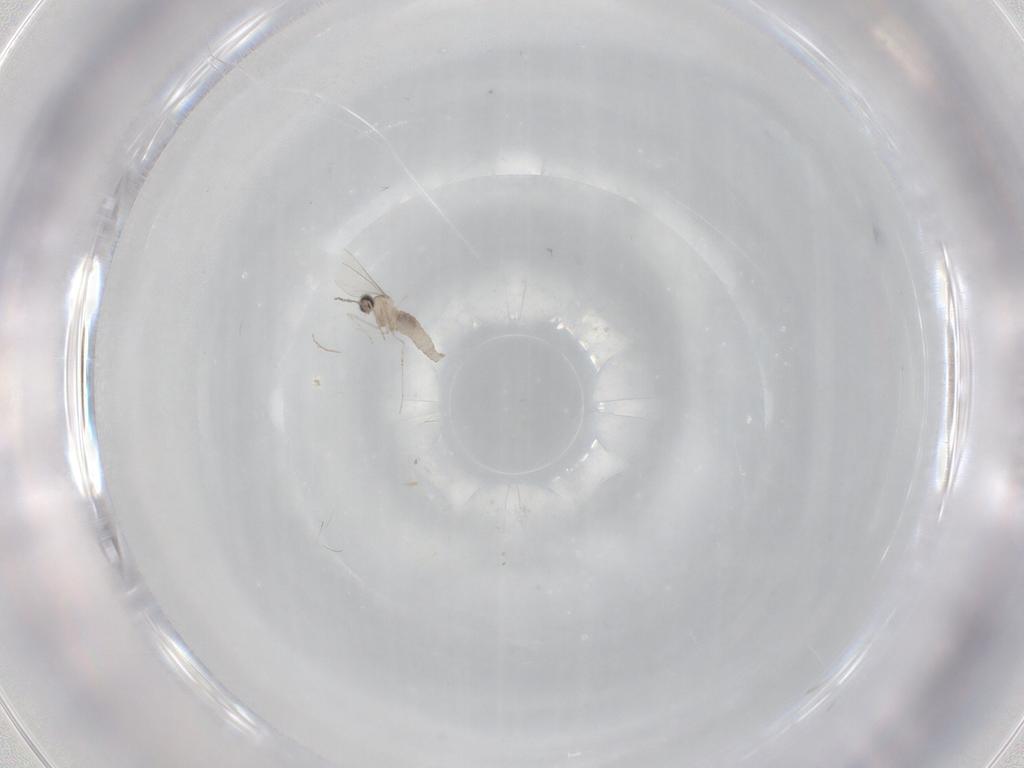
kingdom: Animalia
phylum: Arthropoda
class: Insecta
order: Diptera
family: Cecidomyiidae
